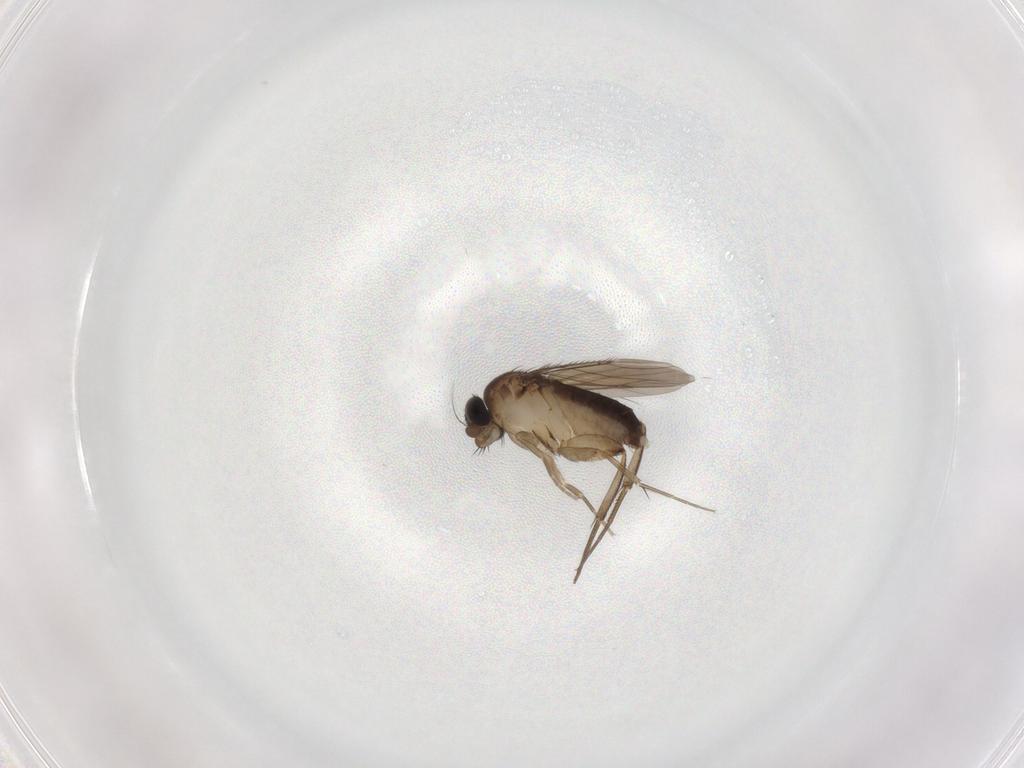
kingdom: Animalia
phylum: Arthropoda
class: Insecta
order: Diptera
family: Phoridae
